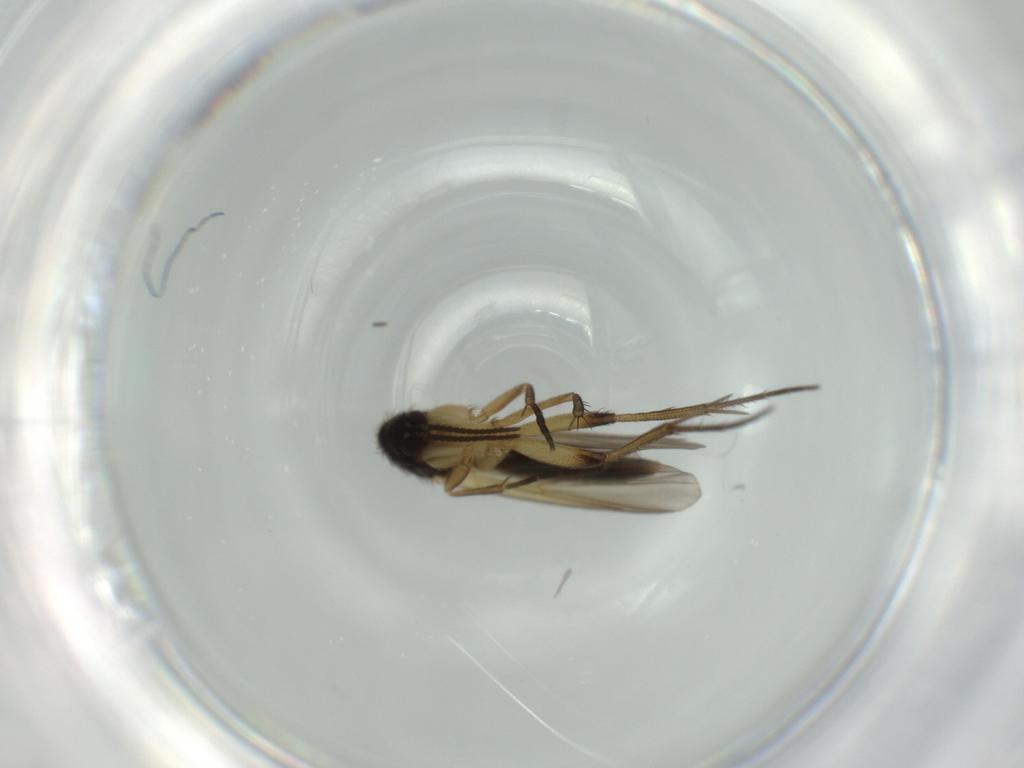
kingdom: Animalia
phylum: Arthropoda
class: Insecta
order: Diptera
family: Mycetophilidae
